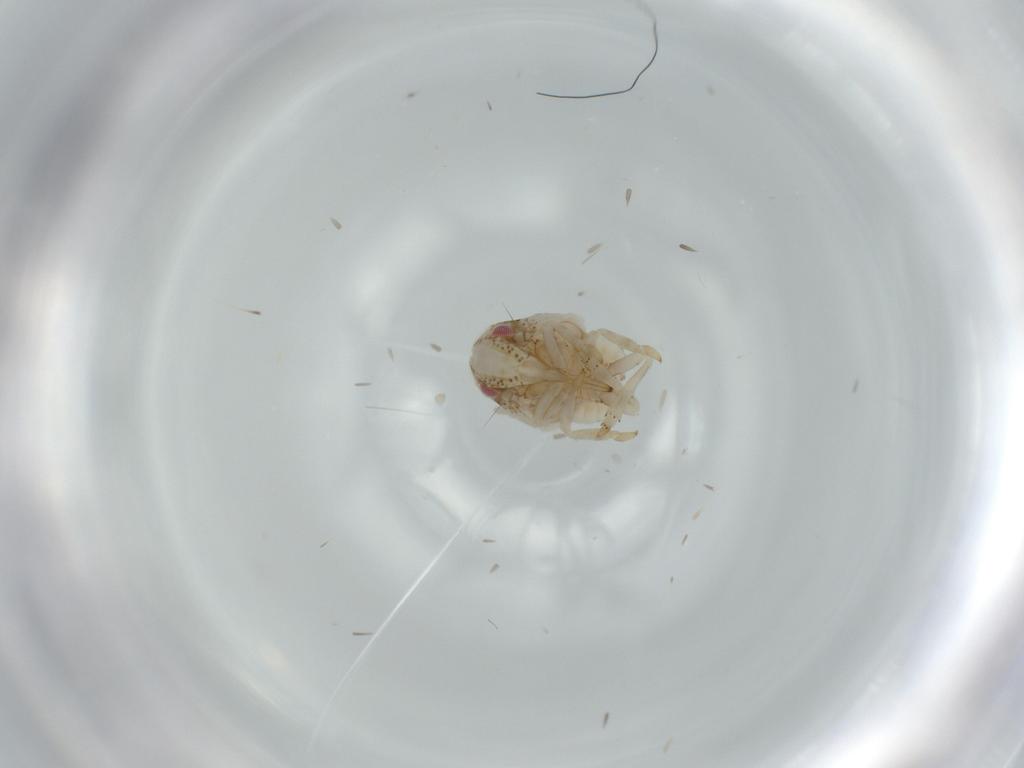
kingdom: Animalia
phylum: Arthropoda
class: Insecta
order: Hemiptera
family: Acanaloniidae
